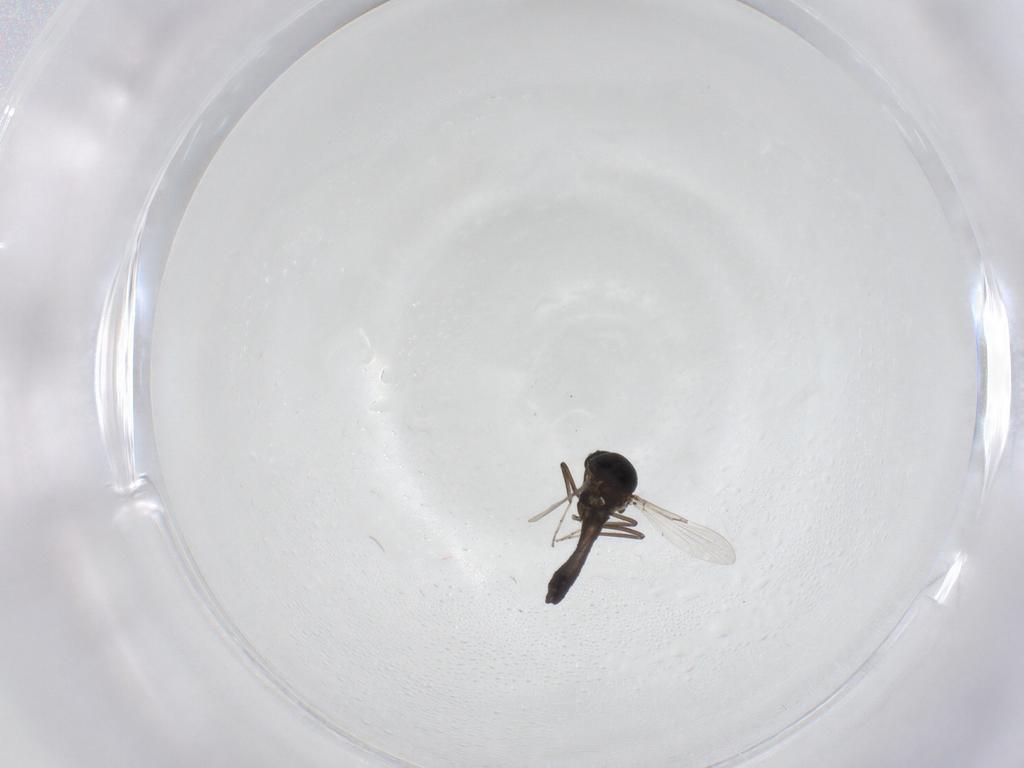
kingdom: Animalia
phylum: Arthropoda
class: Insecta
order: Diptera
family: Ceratopogonidae
